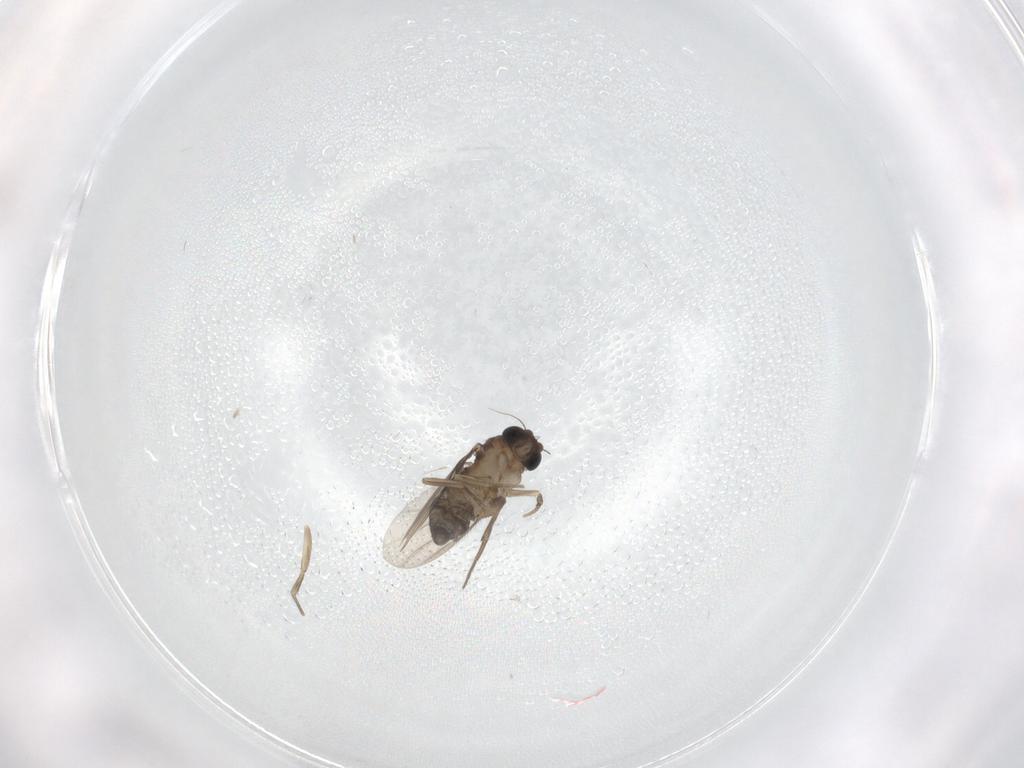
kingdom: Animalia
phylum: Arthropoda
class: Insecta
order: Diptera
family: Phoridae
